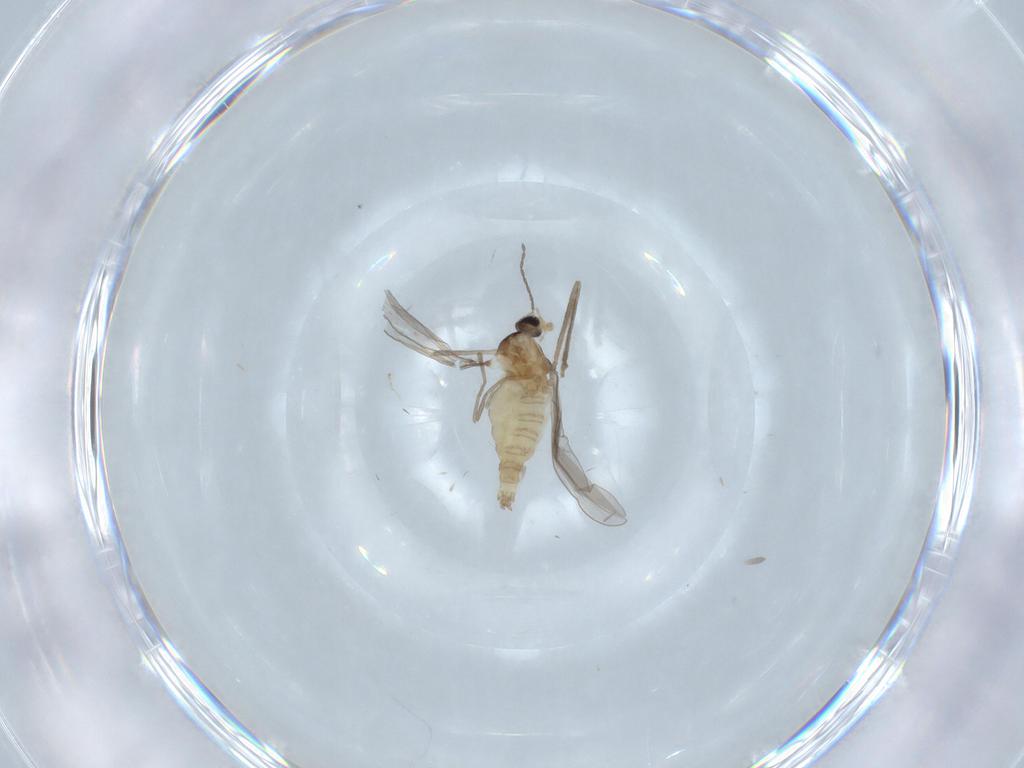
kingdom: Animalia
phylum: Arthropoda
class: Insecta
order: Diptera
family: Cecidomyiidae
